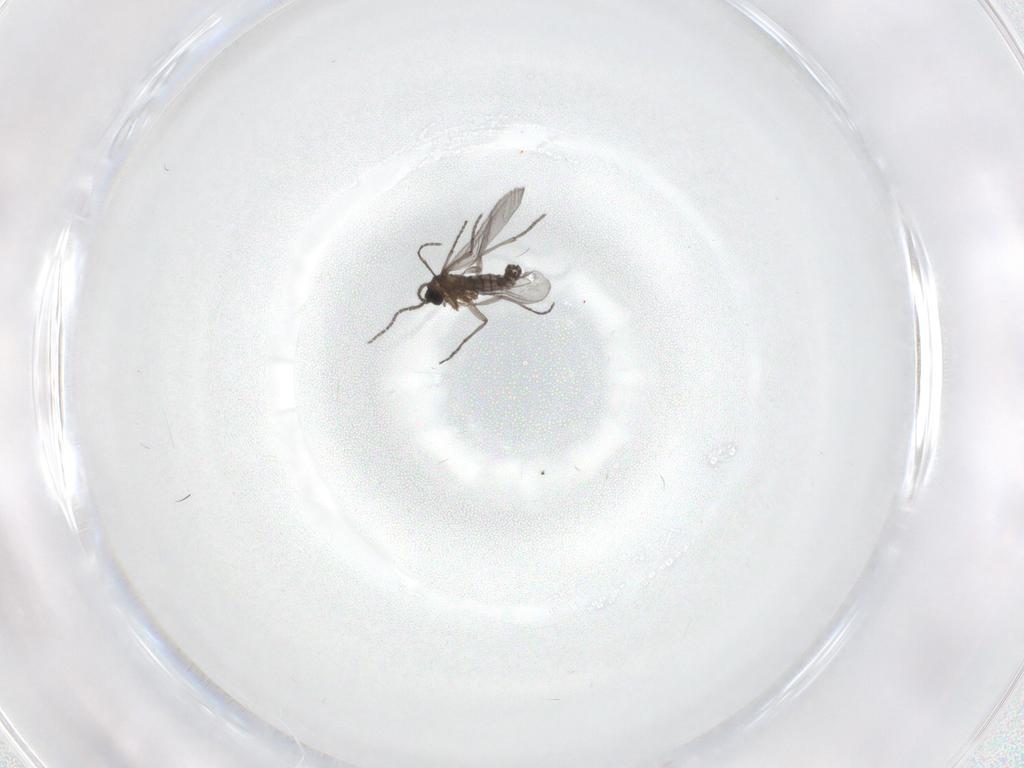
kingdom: Animalia
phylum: Arthropoda
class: Insecta
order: Diptera
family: Sciaridae
